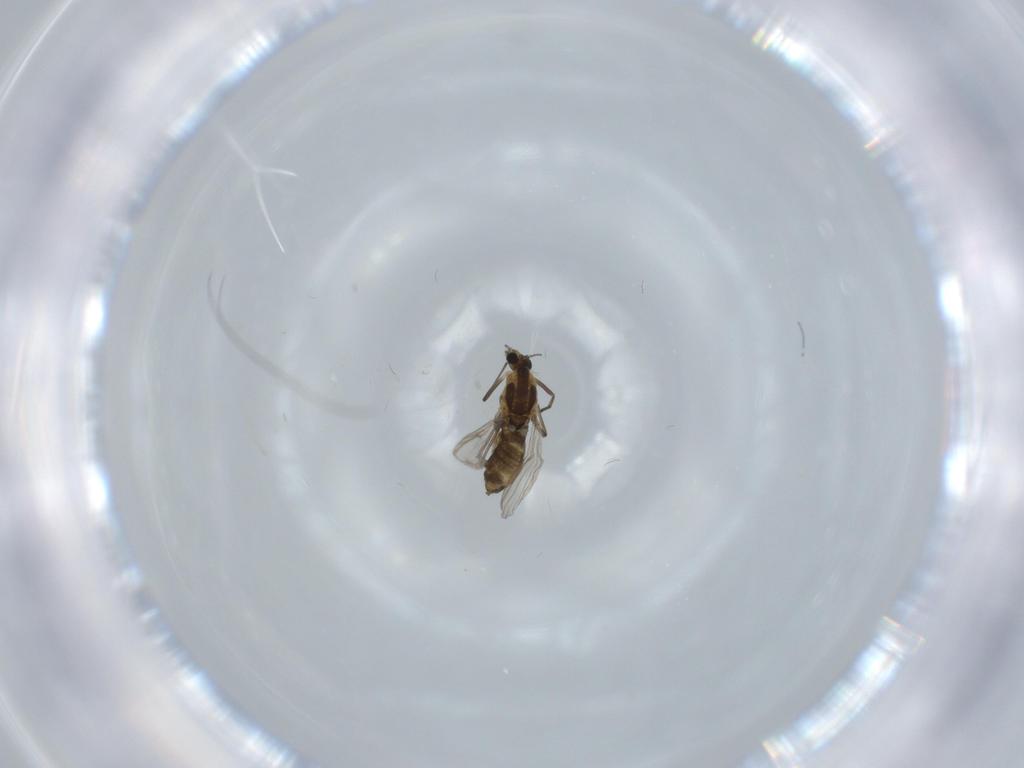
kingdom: Animalia
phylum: Arthropoda
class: Insecta
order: Diptera
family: Chironomidae
